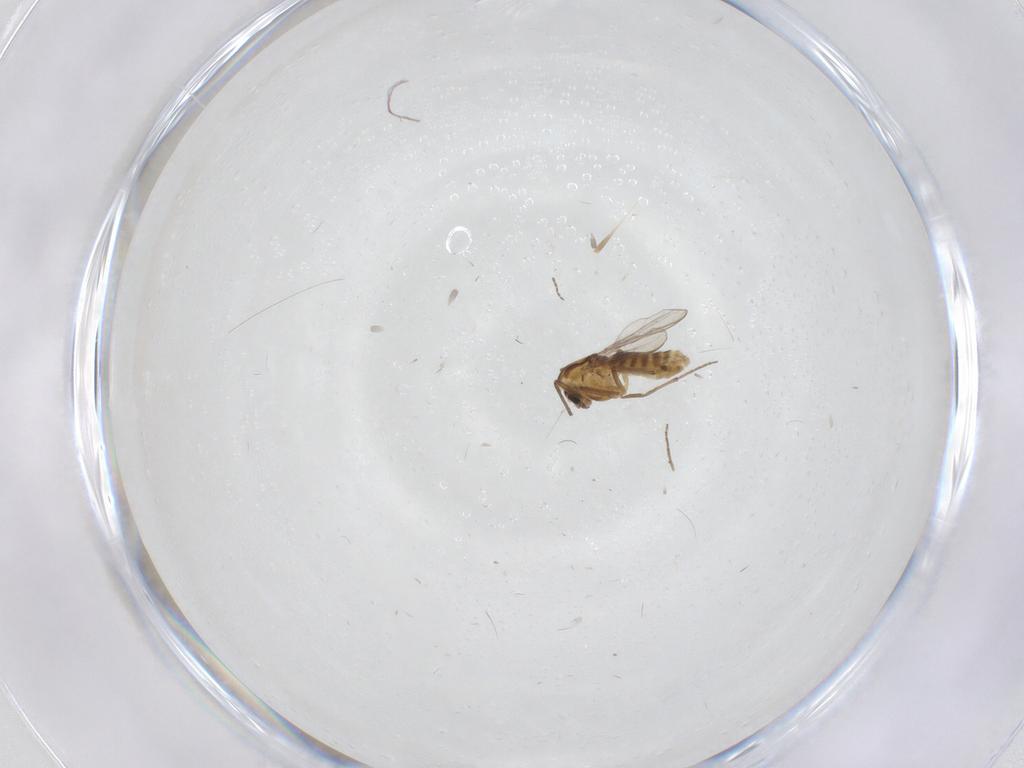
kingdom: Animalia
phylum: Arthropoda
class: Insecta
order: Diptera
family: Cecidomyiidae
